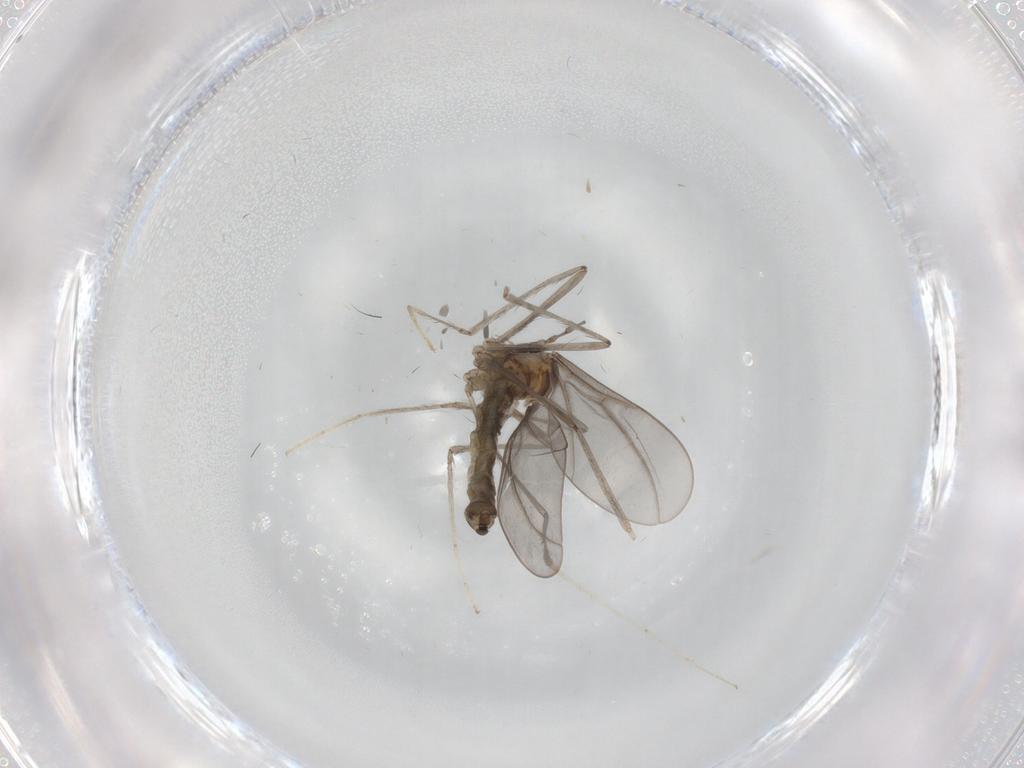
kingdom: Animalia
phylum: Arthropoda
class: Insecta
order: Diptera
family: Cecidomyiidae
